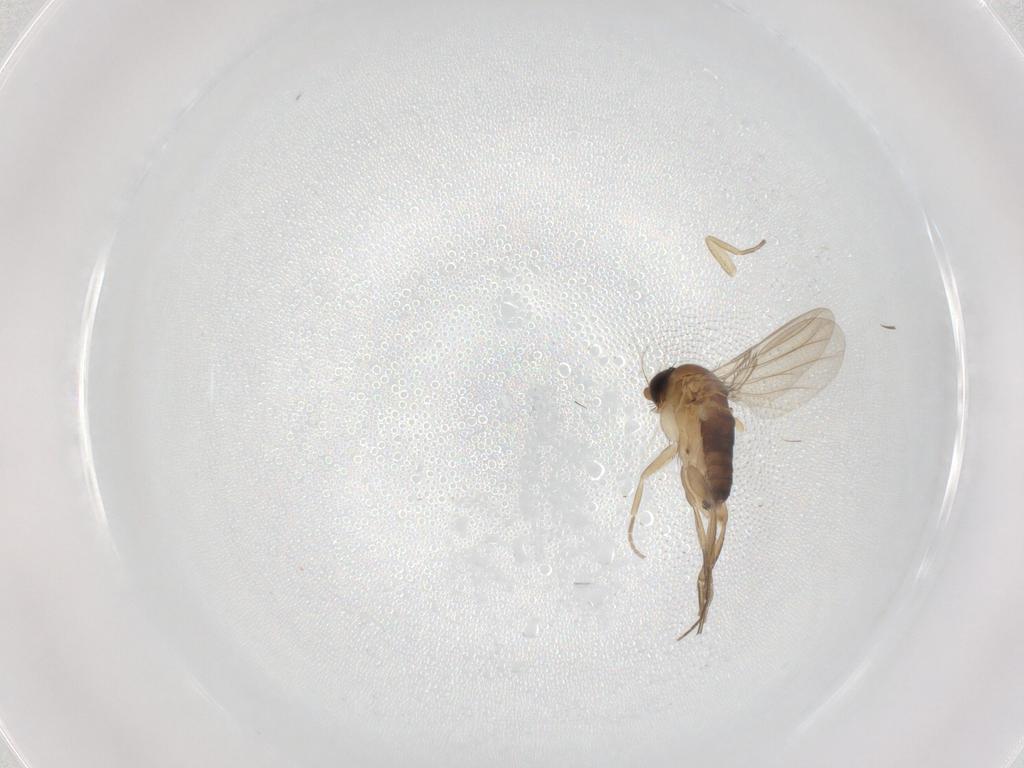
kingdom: Animalia
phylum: Arthropoda
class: Insecta
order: Diptera
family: Phoridae
